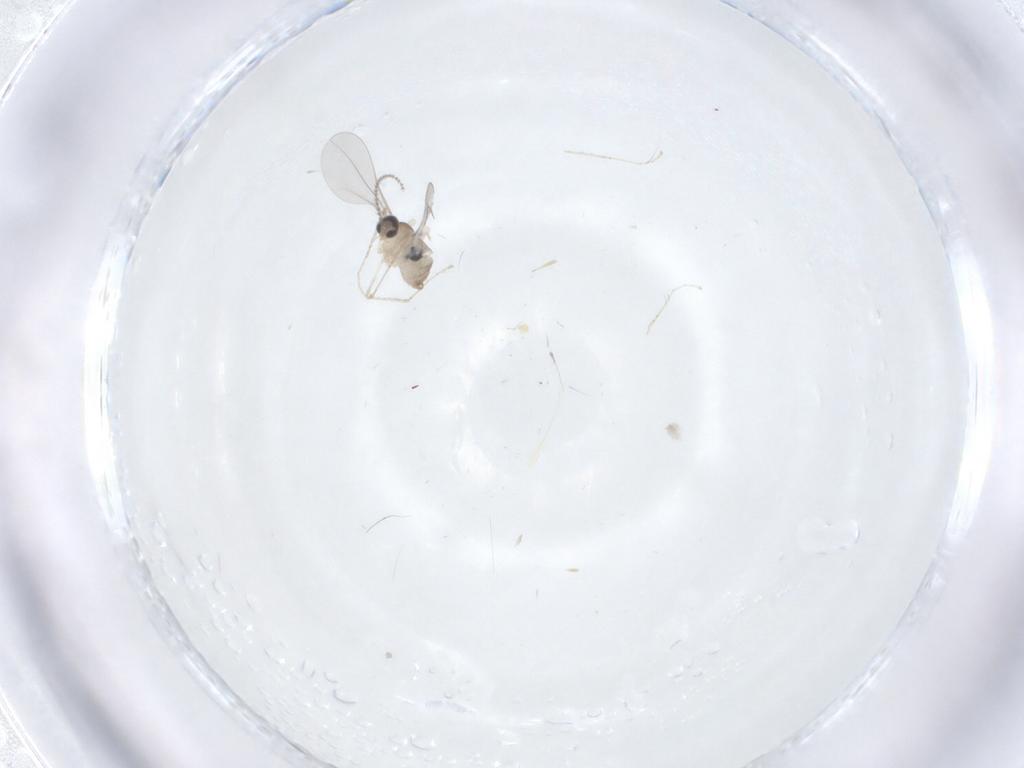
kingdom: Animalia
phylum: Arthropoda
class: Insecta
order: Diptera
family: Cecidomyiidae
